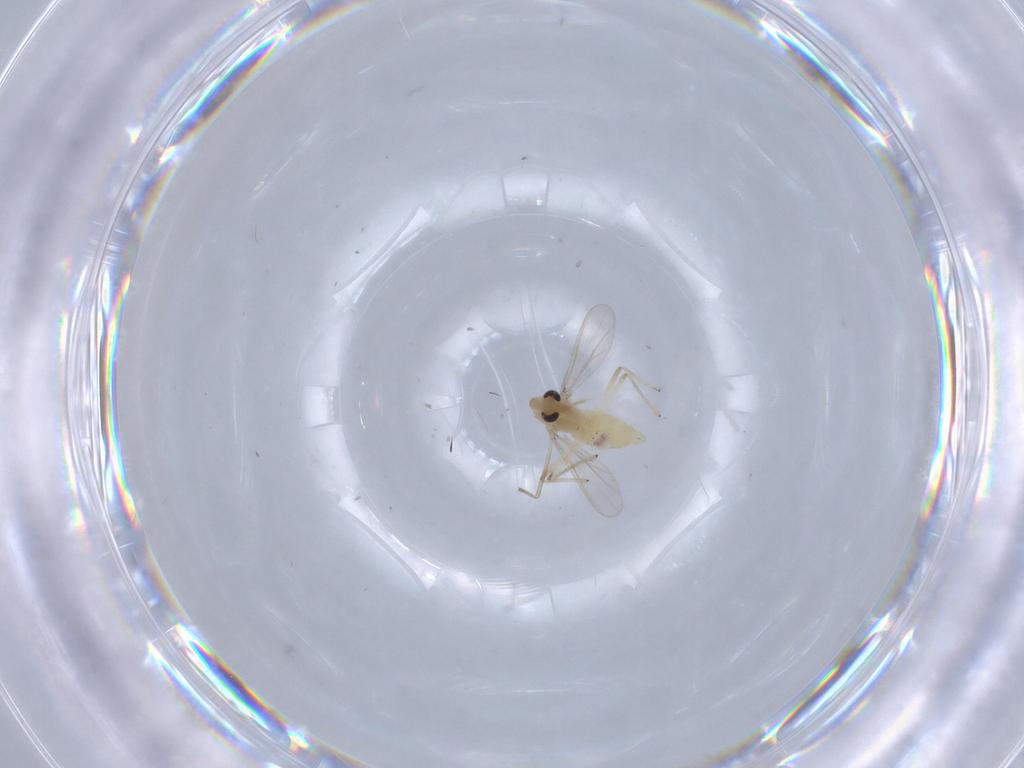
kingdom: Animalia
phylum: Arthropoda
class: Insecta
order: Diptera
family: Chironomidae
